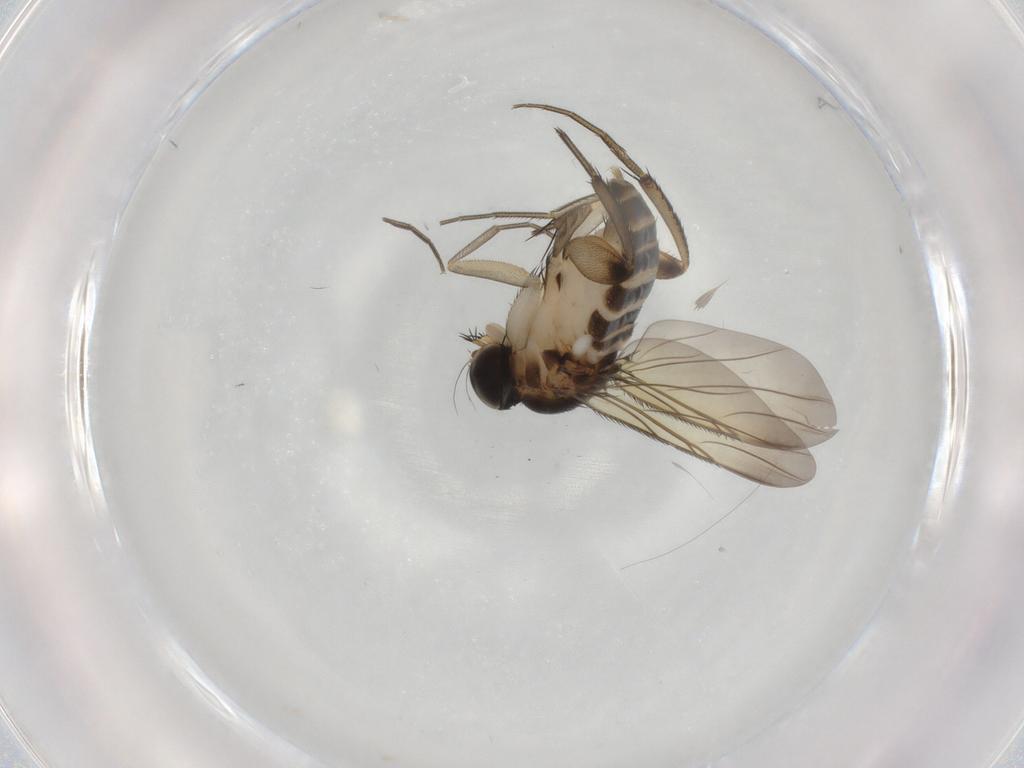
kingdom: Animalia
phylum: Arthropoda
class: Insecta
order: Diptera
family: Phoridae
